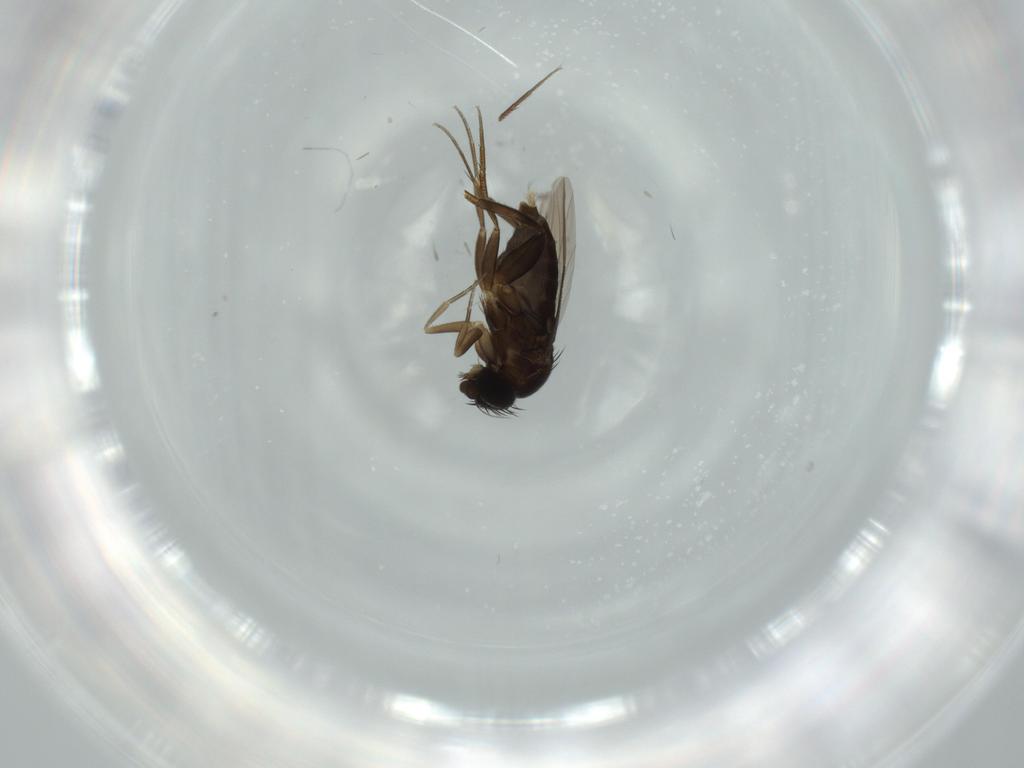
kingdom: Animalia
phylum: Arthropoda
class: Insecta
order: Diptera
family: Phoridae
